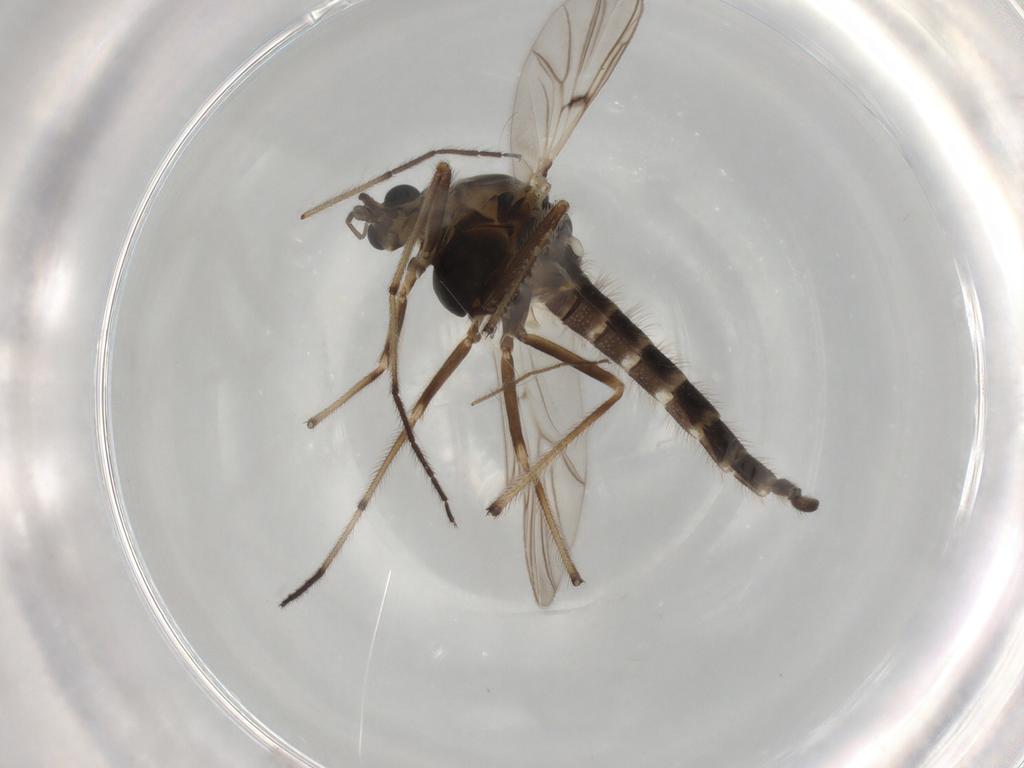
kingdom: Animalia
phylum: Arthropoda
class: Insecta
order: Diptera
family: Chironomidae
